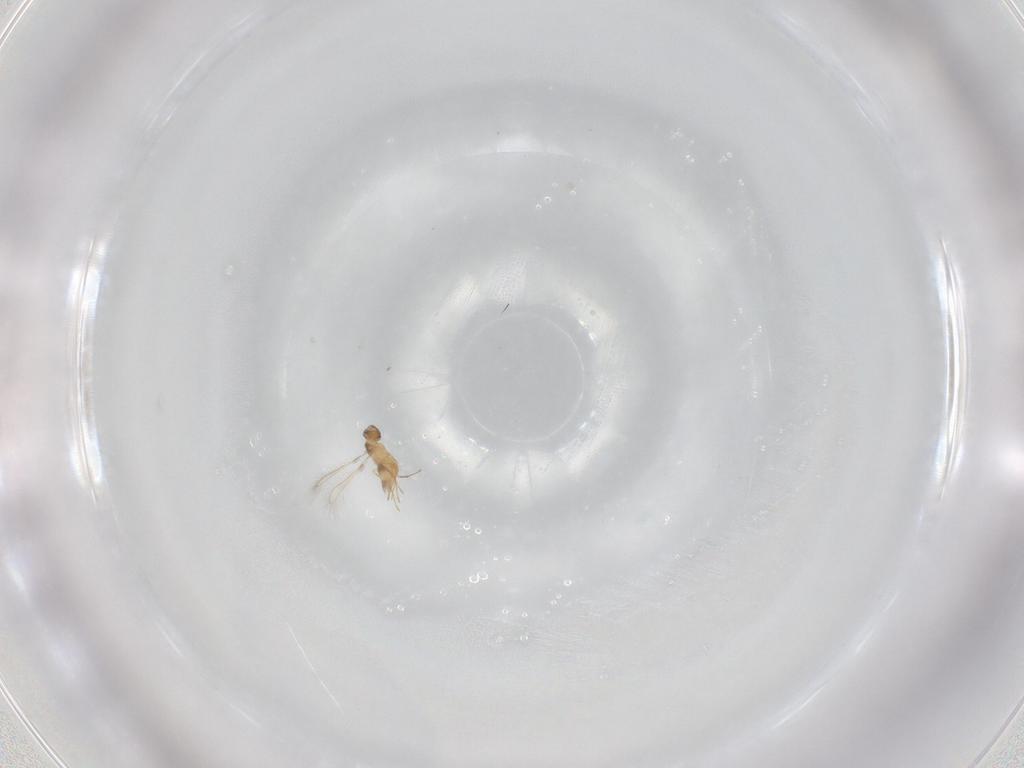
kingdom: Animalia
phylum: Arthropoda
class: Insecta
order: Hymenoptera
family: Mymaridae
